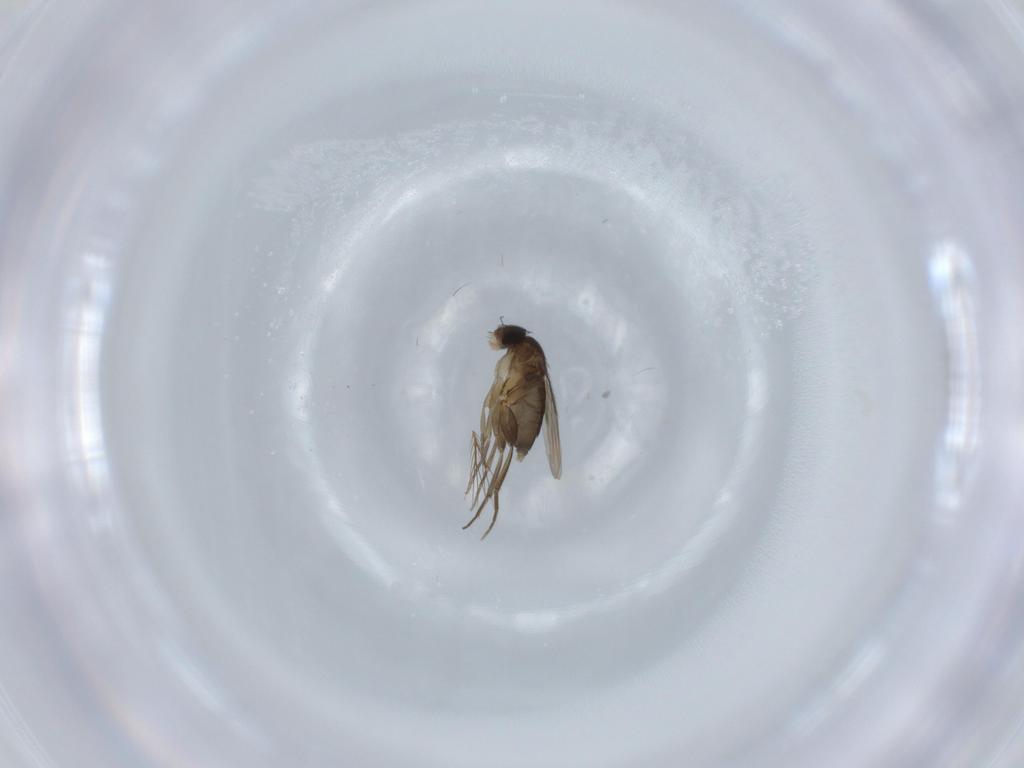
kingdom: Animalia
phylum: Arthropoda
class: Insecta
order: Diptera
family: Phoridae
